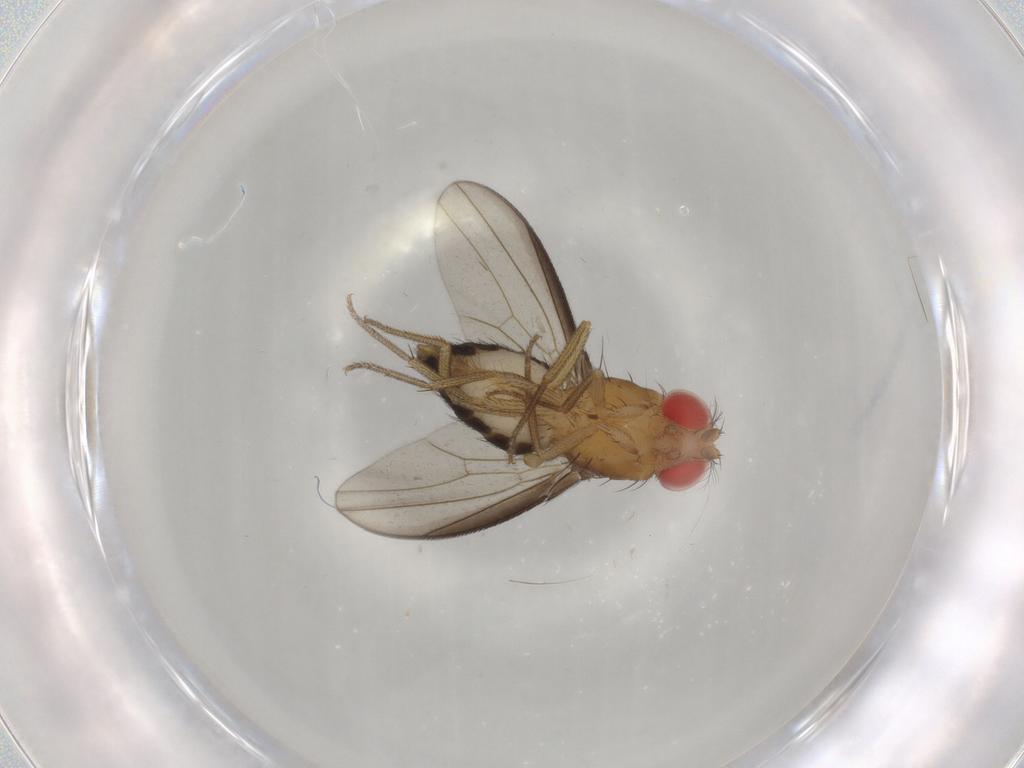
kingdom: Animalia
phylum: Arthropoda
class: Insecta
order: Diptera
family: Drosophilidae
